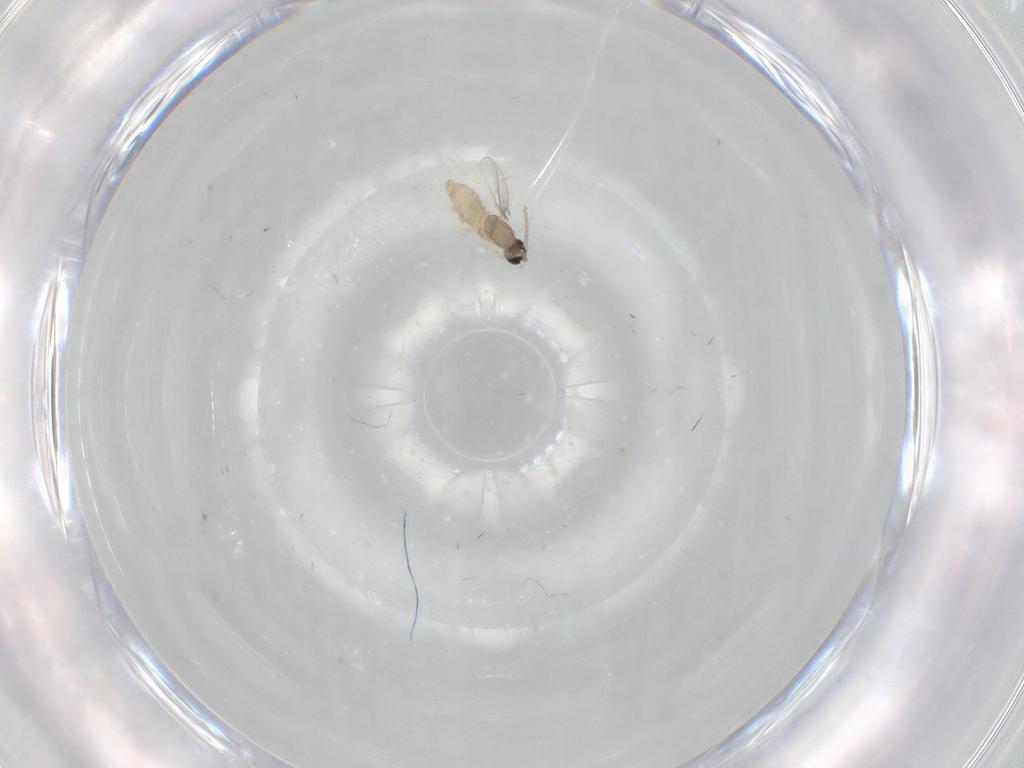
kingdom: Animalia
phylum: Arthropoda
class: Insecta
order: Diptera
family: Cecidomyiidae
